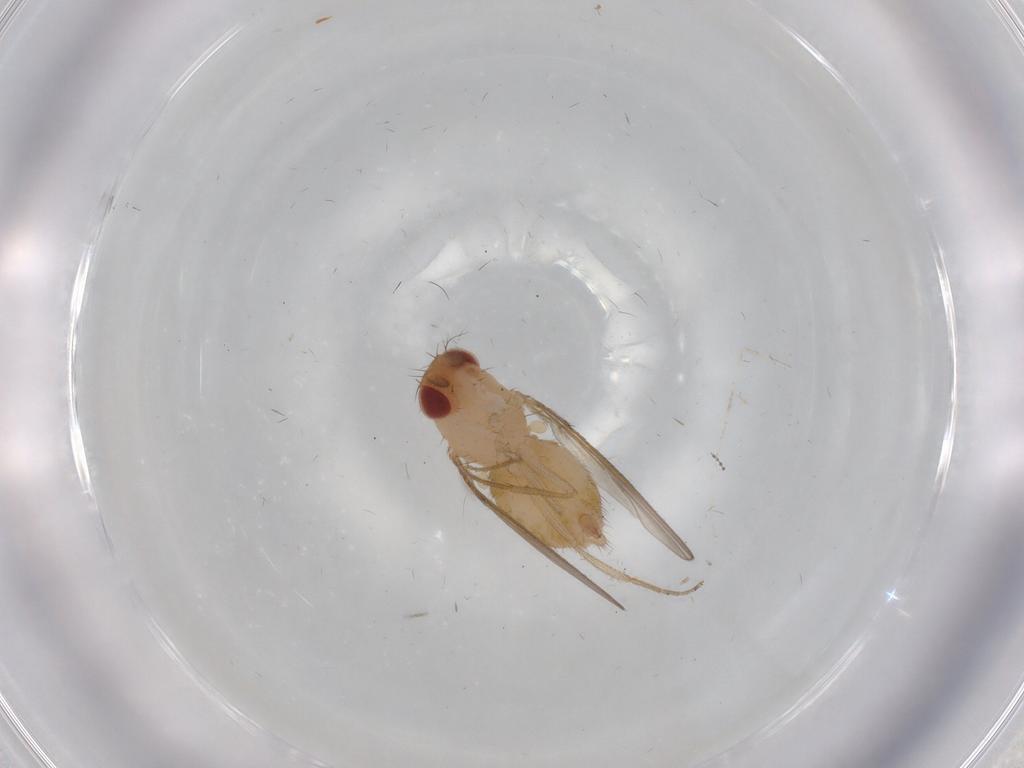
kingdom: Animalia
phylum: Arthropoda
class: Insecta
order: Diptera
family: Drosophilidae
